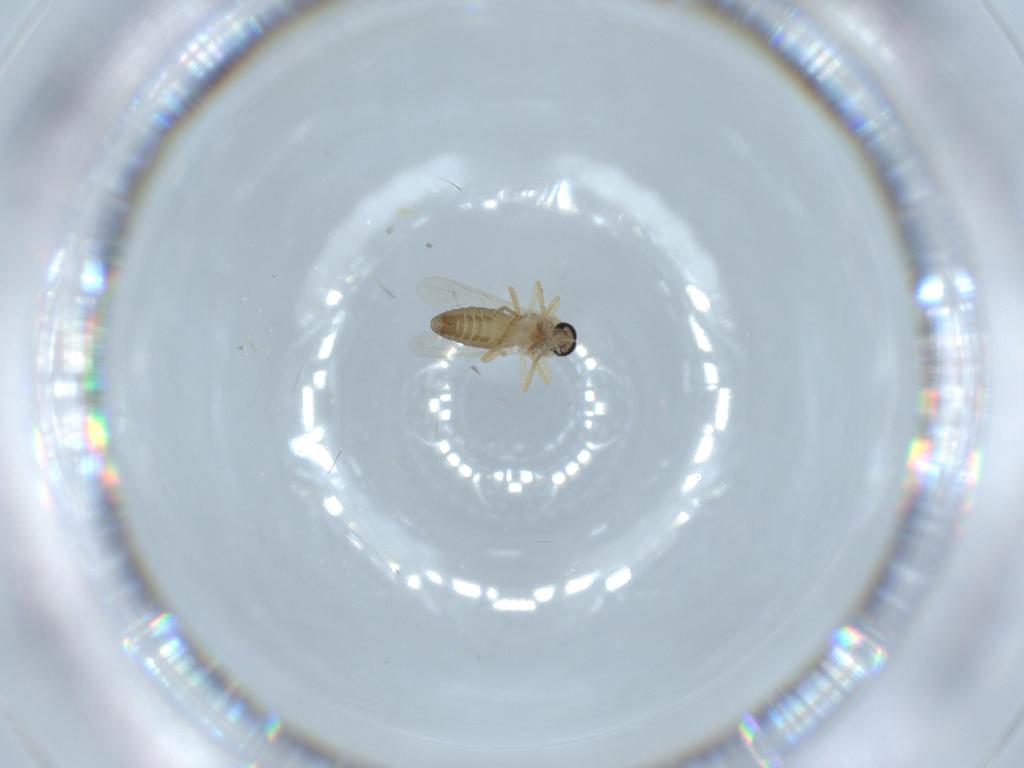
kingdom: Animalia
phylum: Arthropoda
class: Insecta
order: Diptera
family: Ceratopogonidae
